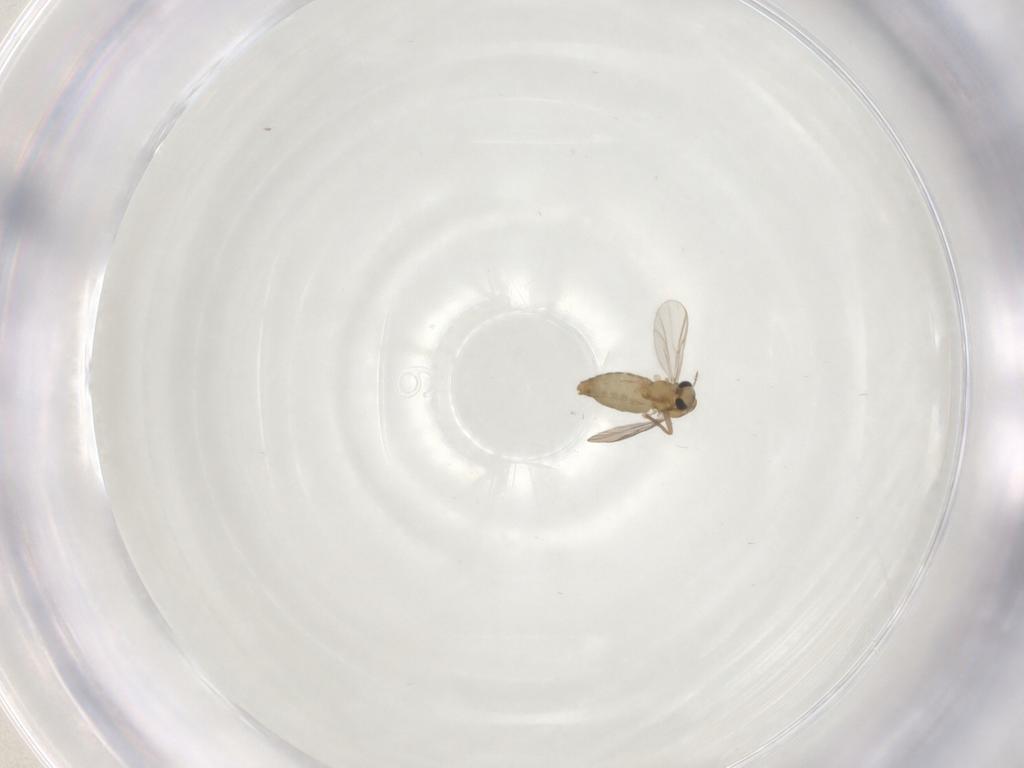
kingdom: Animalia
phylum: Arthropoda
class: Insecta
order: Diptera
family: Chironomidae
